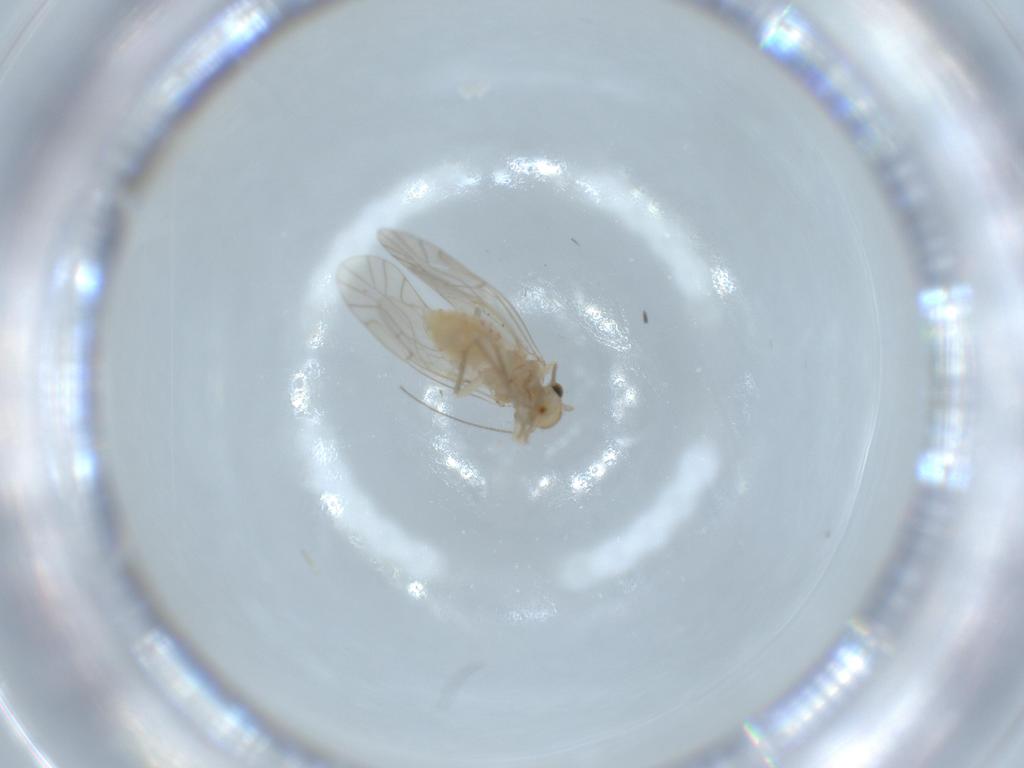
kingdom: Animalia
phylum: Arthropoda
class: Insecta
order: Psocodea
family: Lachesillidae
